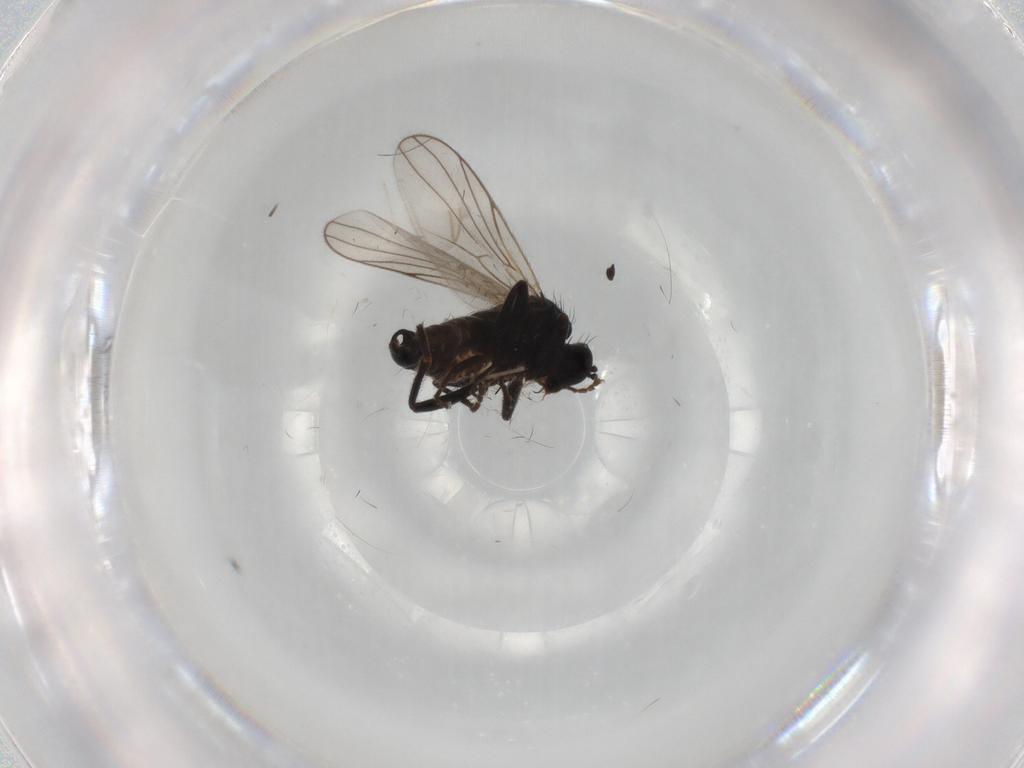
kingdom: Animalia
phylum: Arthropoda
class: Insecta
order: Diptera
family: Hybotidae
